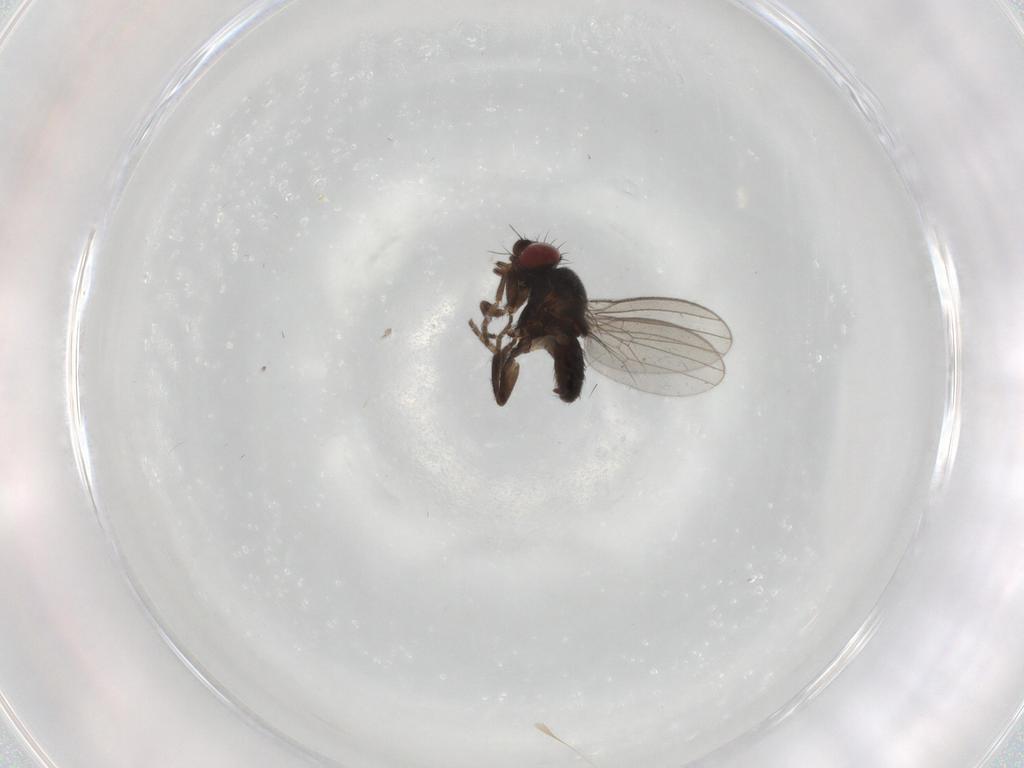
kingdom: Animalia
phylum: Arthropoda
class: Insecta
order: Diptera
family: Milichiidae
